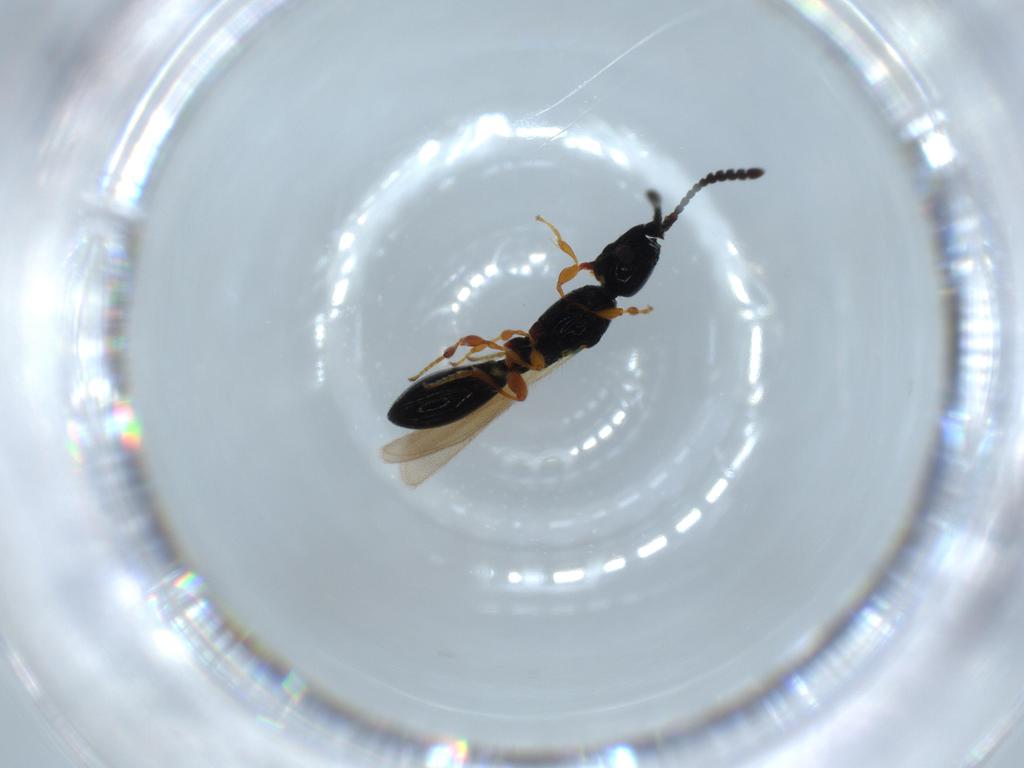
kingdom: Animalia
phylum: Arthropoda
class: Insecta
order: Hymenoptera
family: Diapriidae
